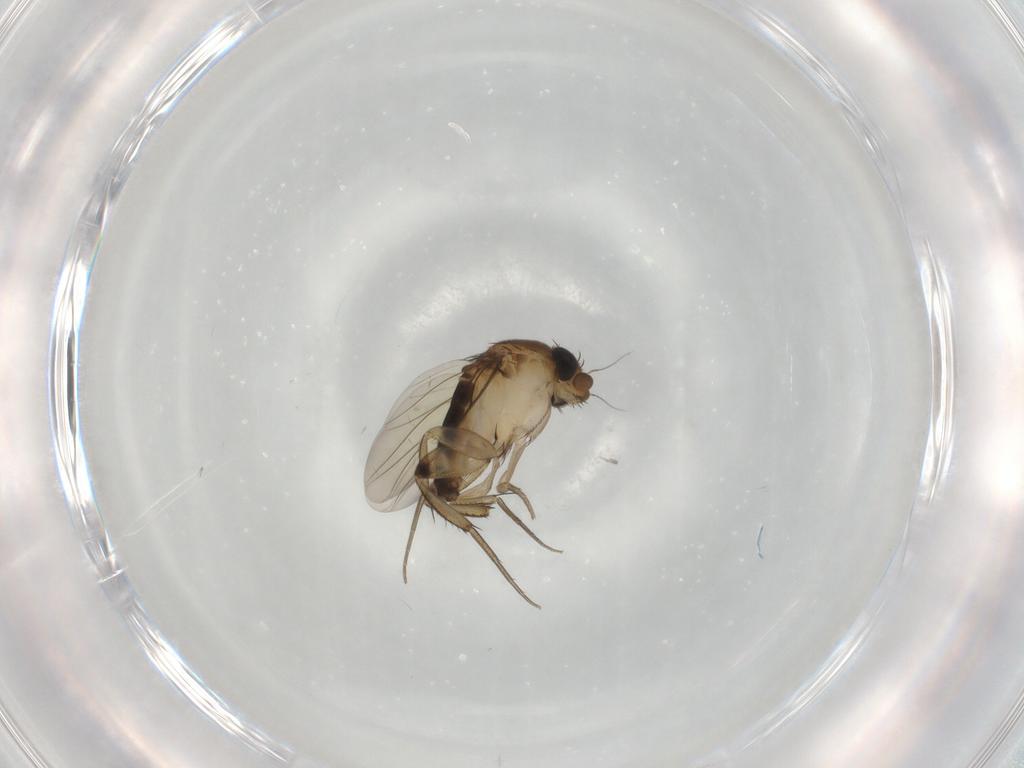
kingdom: Animalia
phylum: Arthropoda
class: Insecta
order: Diptera
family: Phoridae
